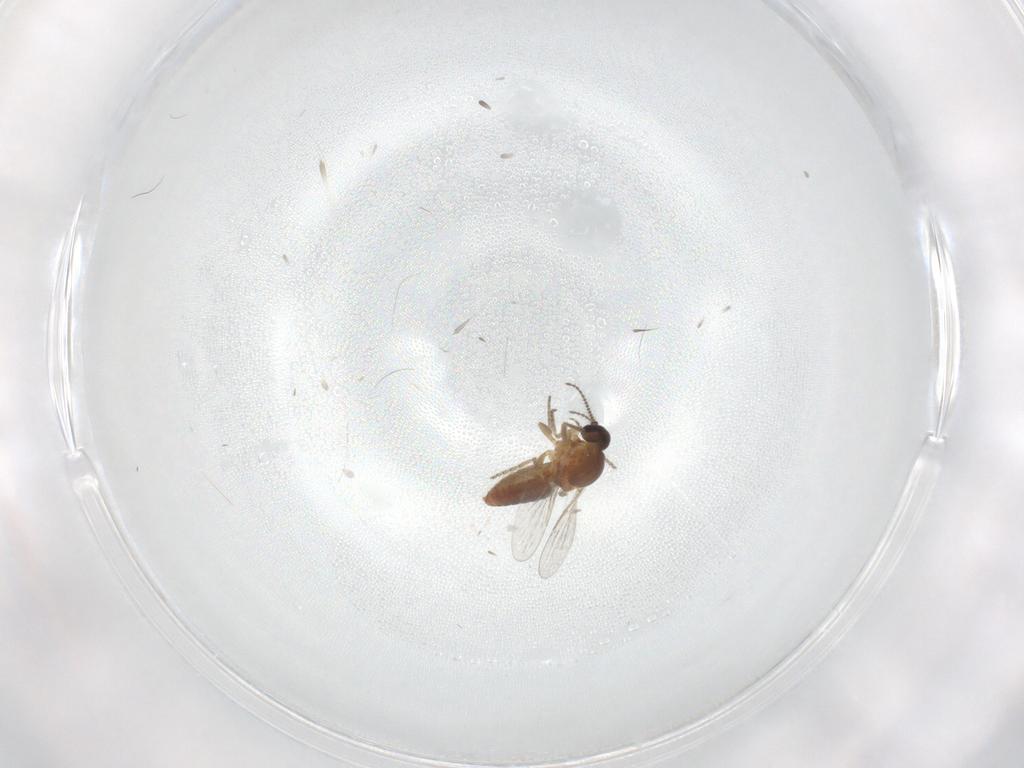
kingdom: Animalia
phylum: Arthropoda
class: Insecta
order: Diptera
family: Ceratopogonidae
